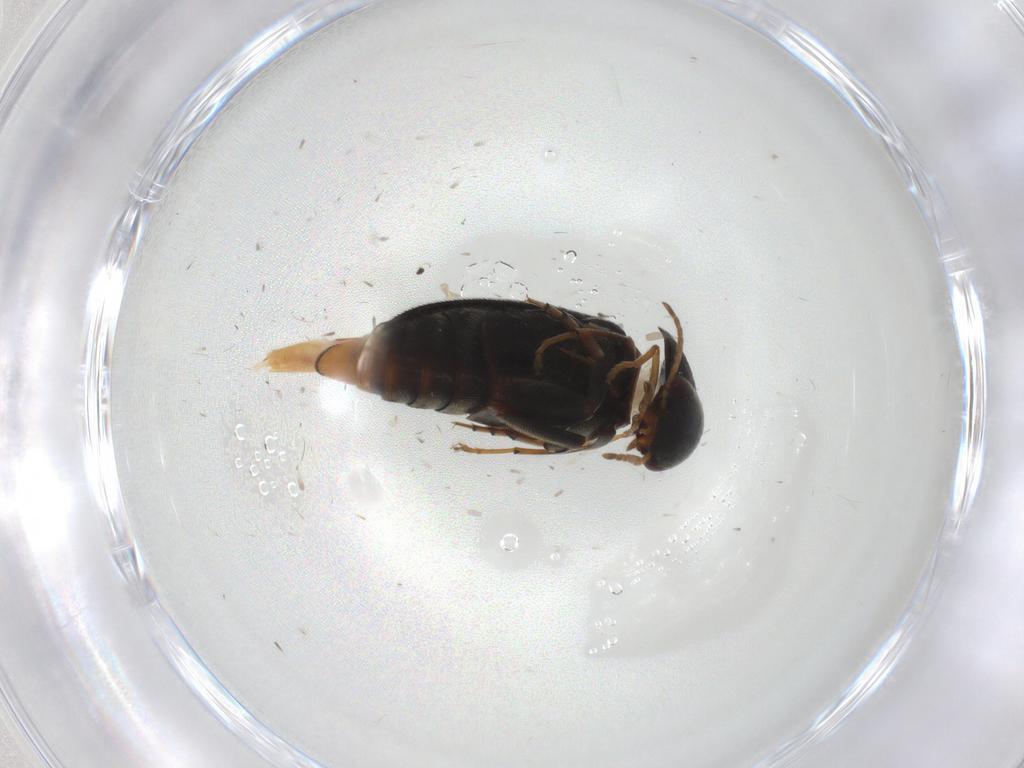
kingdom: Animalia
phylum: Arthropoda
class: Insecta
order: Coleoptera
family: Mordellidae
